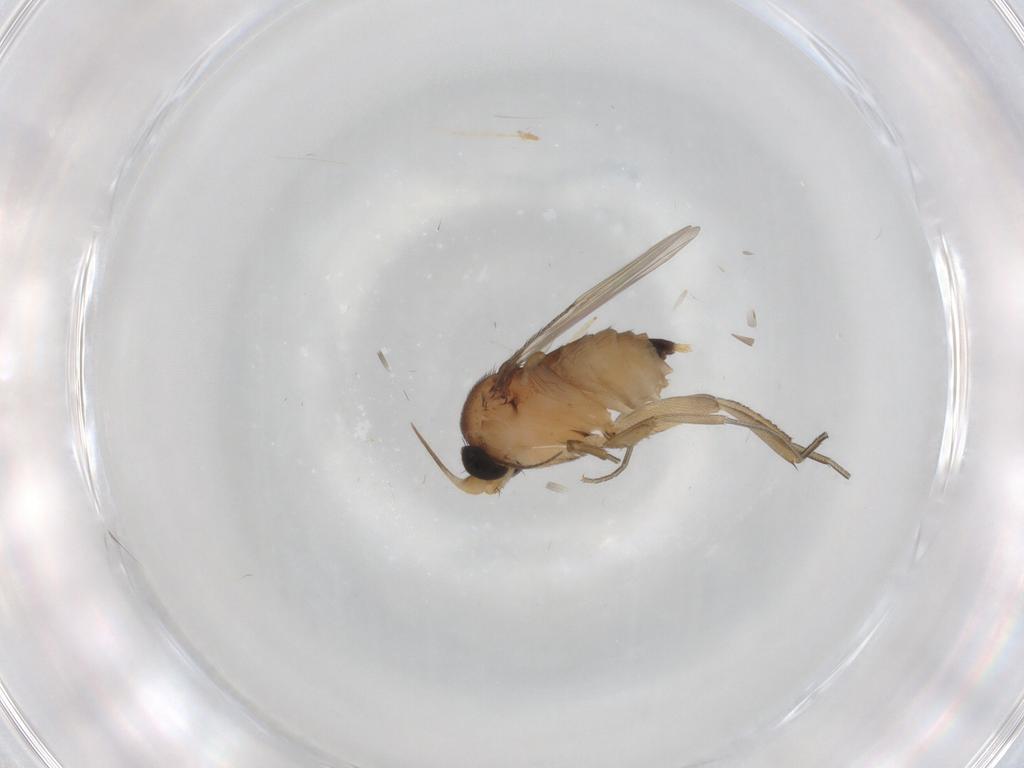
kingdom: Animalia
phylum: Arthropoda
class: Insecta
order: Diptera
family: Phoridae
